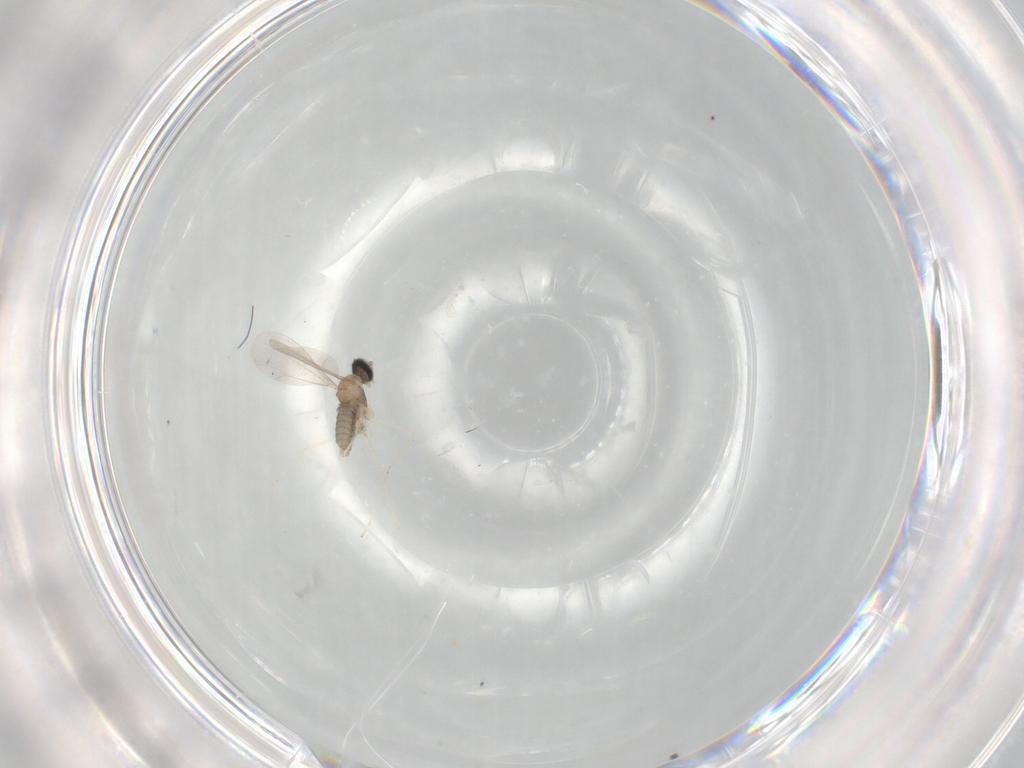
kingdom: Animalia
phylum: Arthropoda
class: Insecta
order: Diptera
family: Cecidomyiidae
